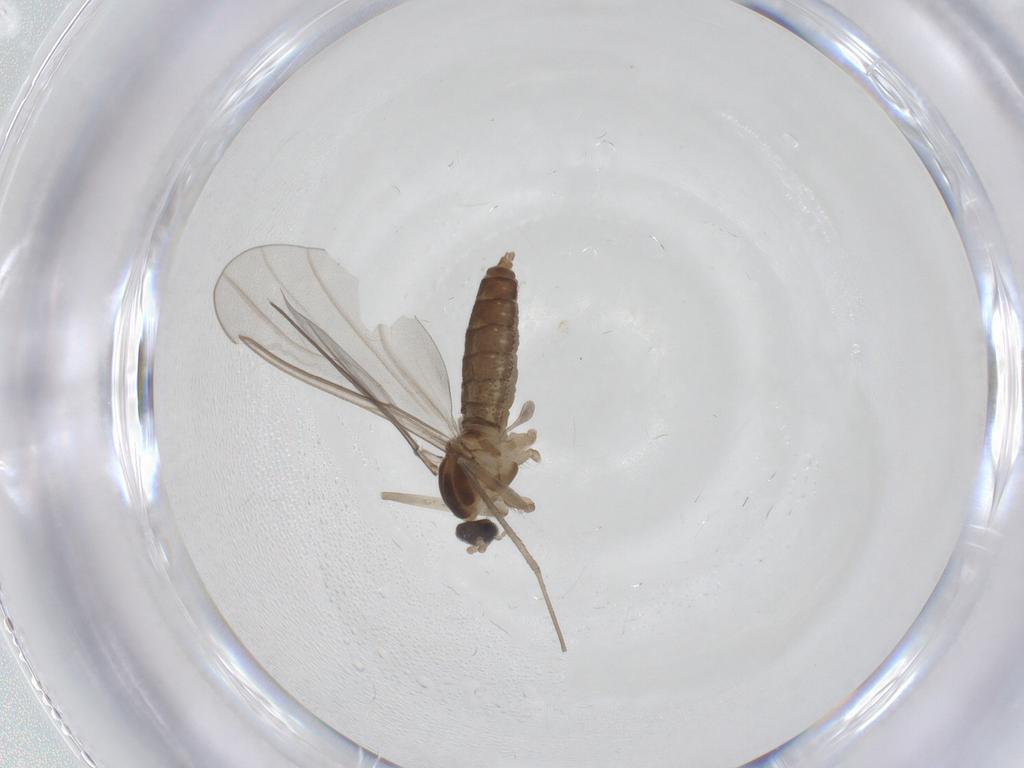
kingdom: Animalia
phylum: Arthropoda
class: Insecta
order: Diptera
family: Cecidomyiidae
